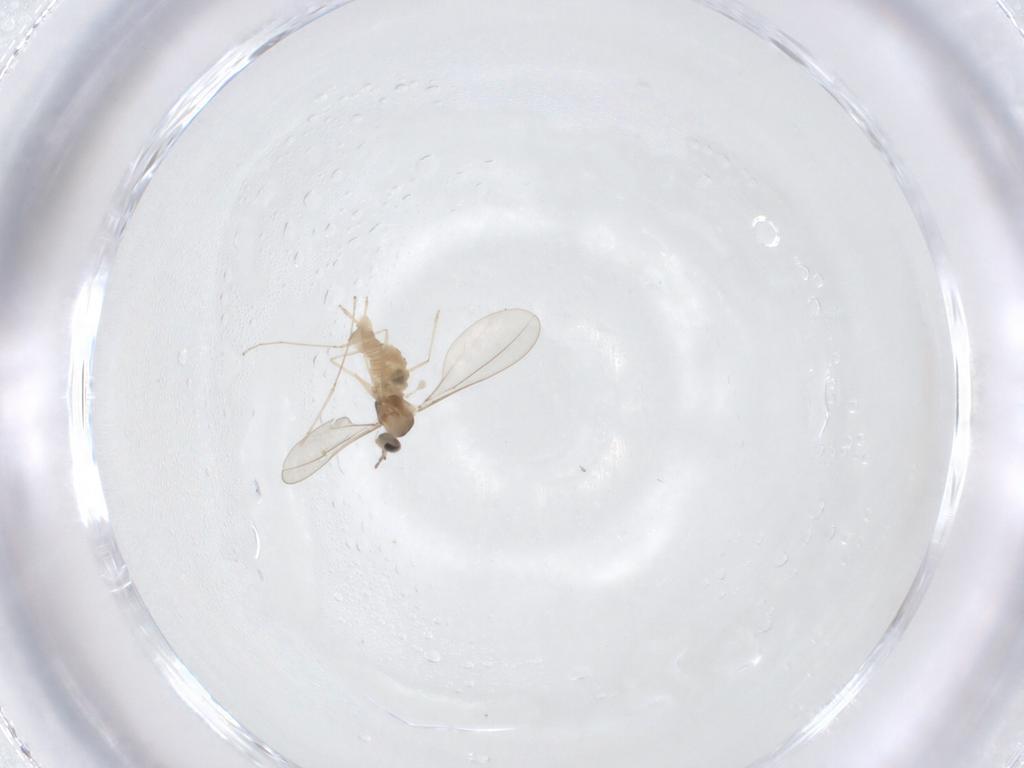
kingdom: Animalia
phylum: Arthropoda
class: Insecta
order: Diptera
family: Cecidomyiidae
